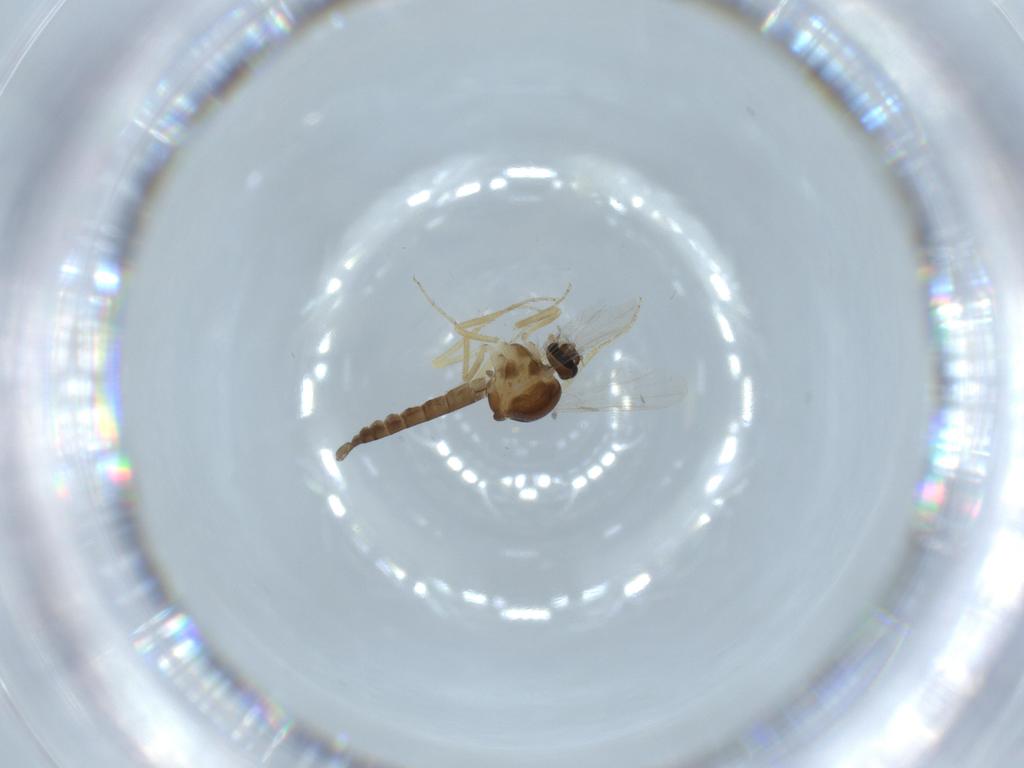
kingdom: Animalia
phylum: Arthropoda
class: Insecta
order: Diptera
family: Ceratopogonidae
